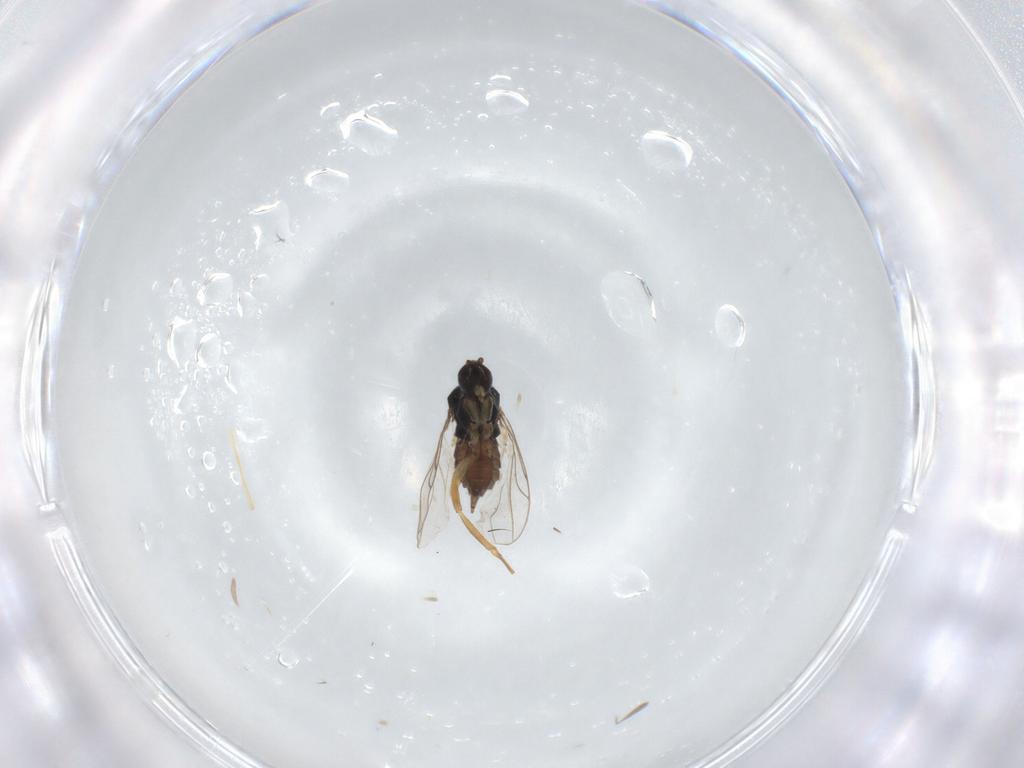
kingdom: Animalia
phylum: Arthropoda
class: Insecta
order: Diptera
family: Hybotidae
